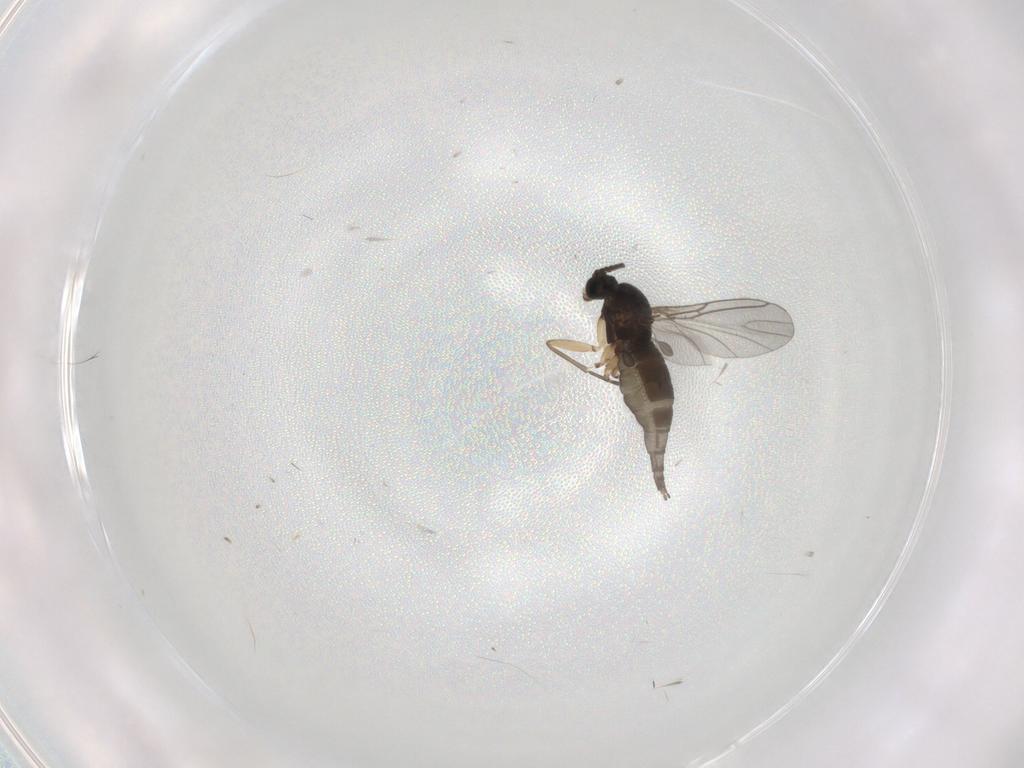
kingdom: Animalia
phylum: Arthropoda
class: Insecta
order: Diptera
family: Sciaridae
